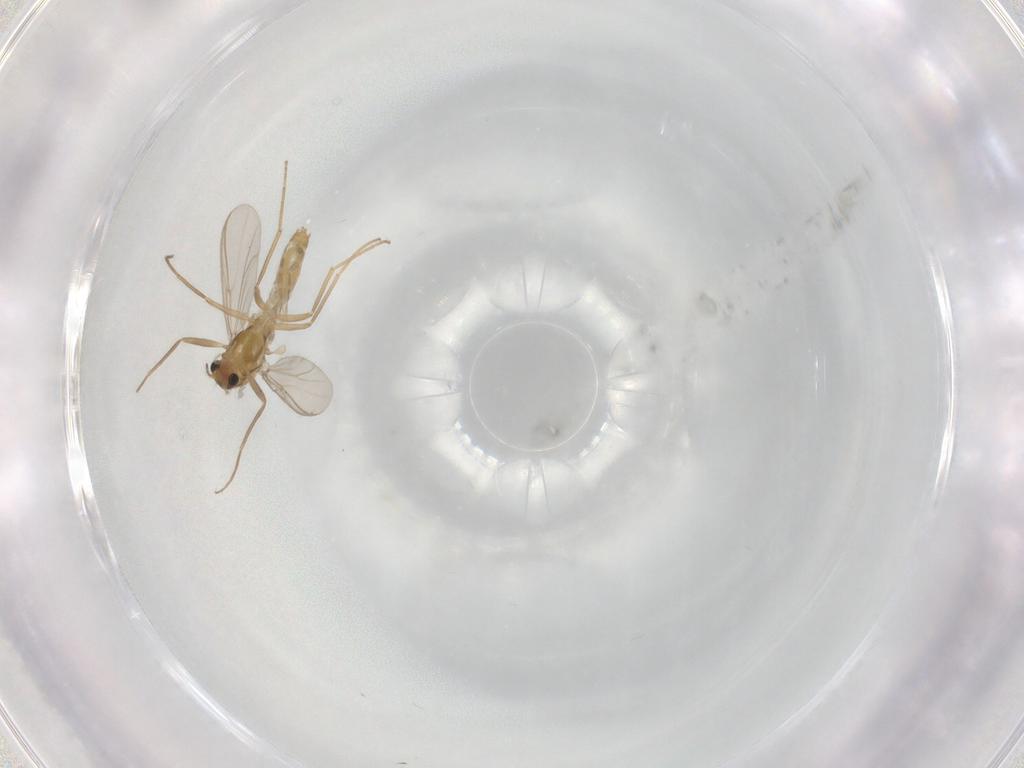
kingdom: Animalia
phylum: Arthropoda
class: Insecta
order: Diptera
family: Chironomidae
